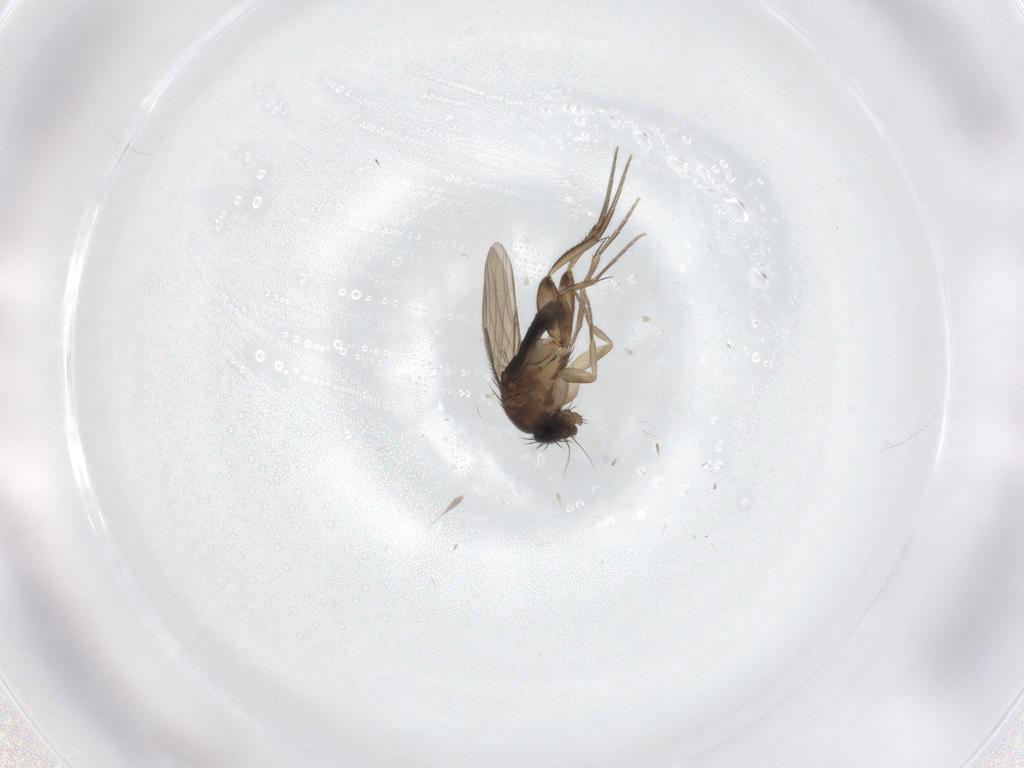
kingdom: Animalia
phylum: Arthropoda
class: Insecta
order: Diptera
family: Phoridae
